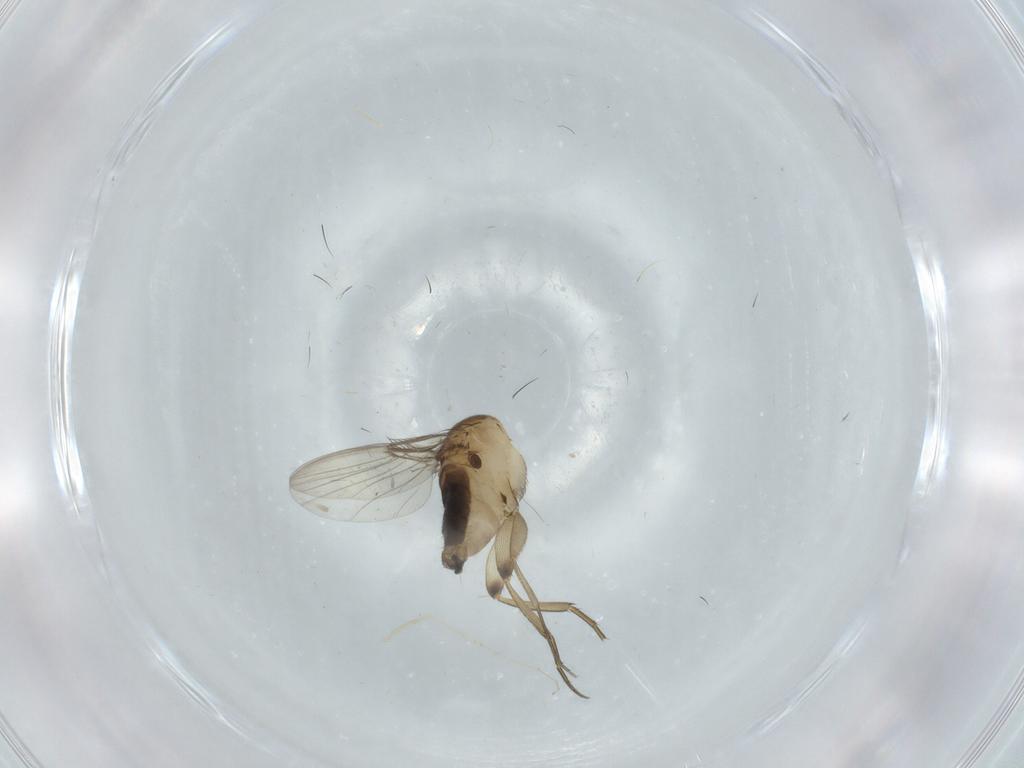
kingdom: Animalia
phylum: Arthropoda
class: Insecta
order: Diptera
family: Phoridae
